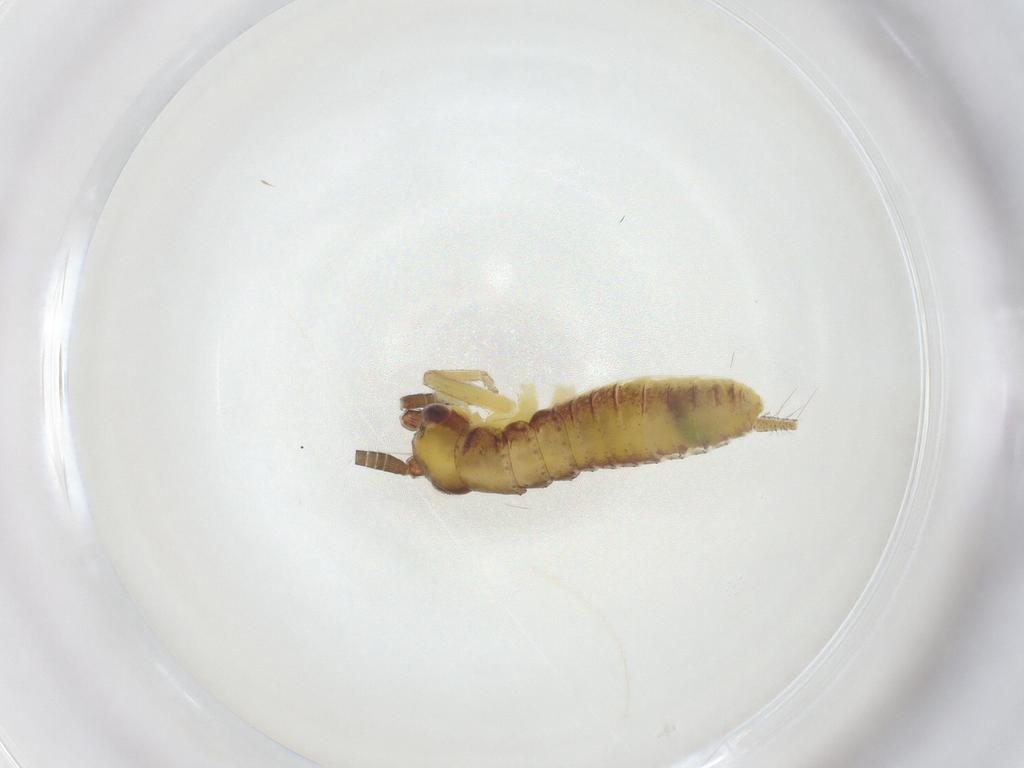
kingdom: Animalia
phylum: Arthropoda
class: Insecta
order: Orthoptera
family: Gryllidae
